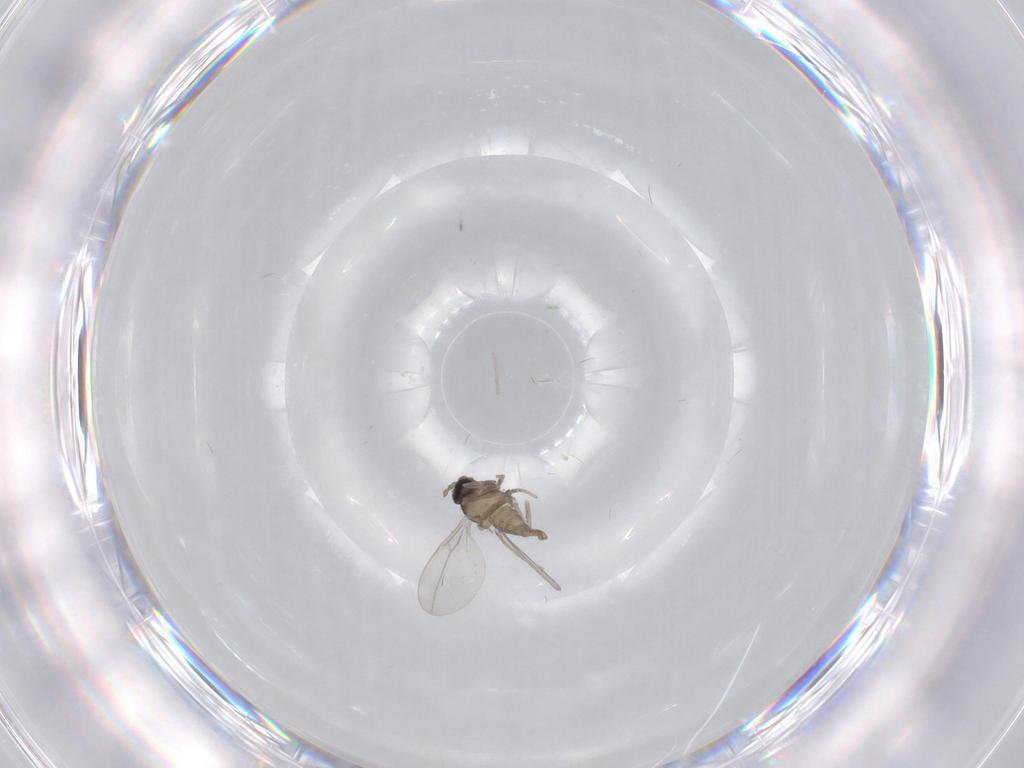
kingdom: Animalia
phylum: Arthropoda
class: Insecta
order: Diptera
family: Cecidomyiidae
